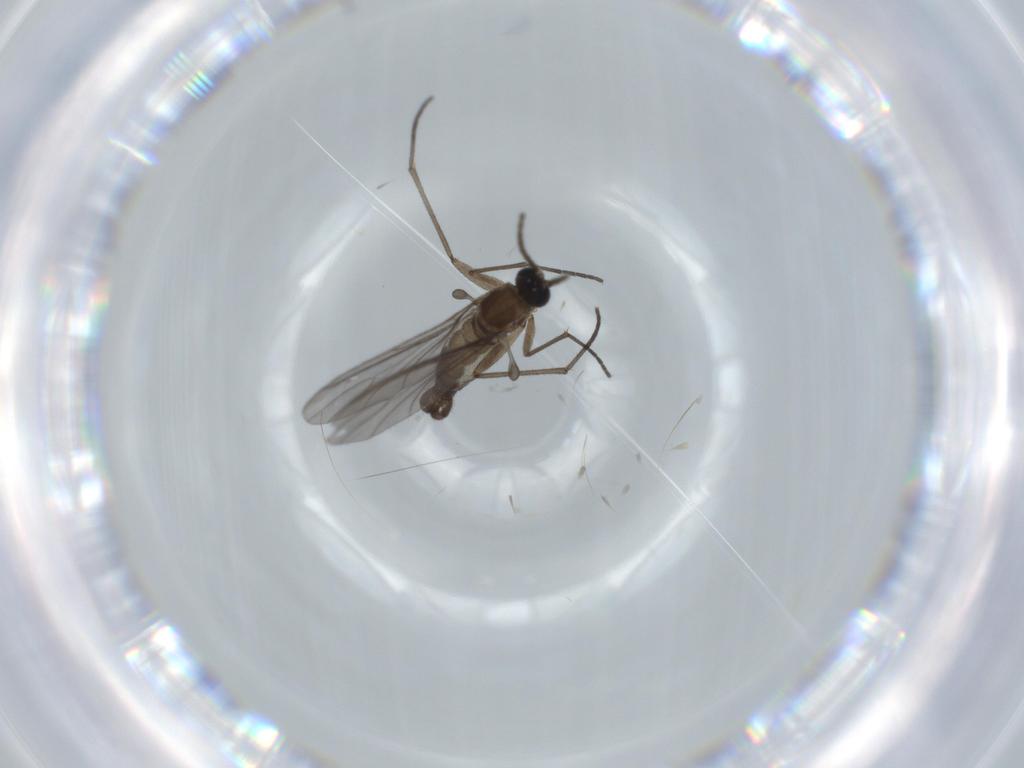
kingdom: Animalia
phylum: Arthropoda
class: Insecta
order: Diptera
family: Sciaridae
